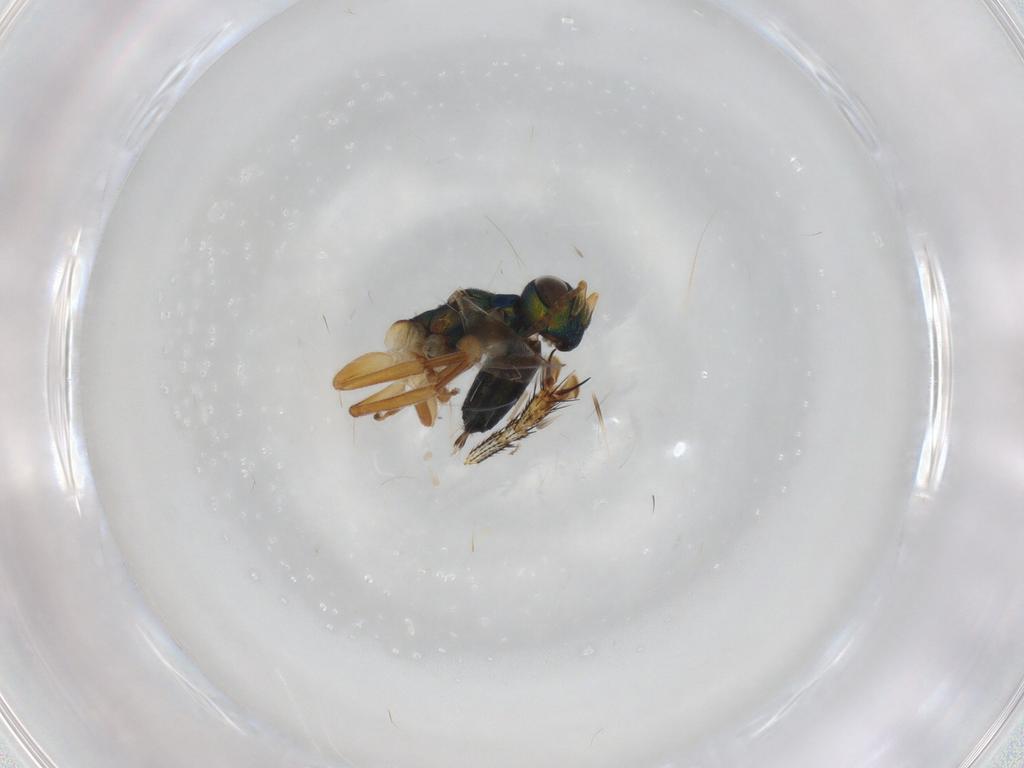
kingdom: Animalia
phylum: Arthropoda
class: Insecta
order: Hymenoptera
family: Formicidae
